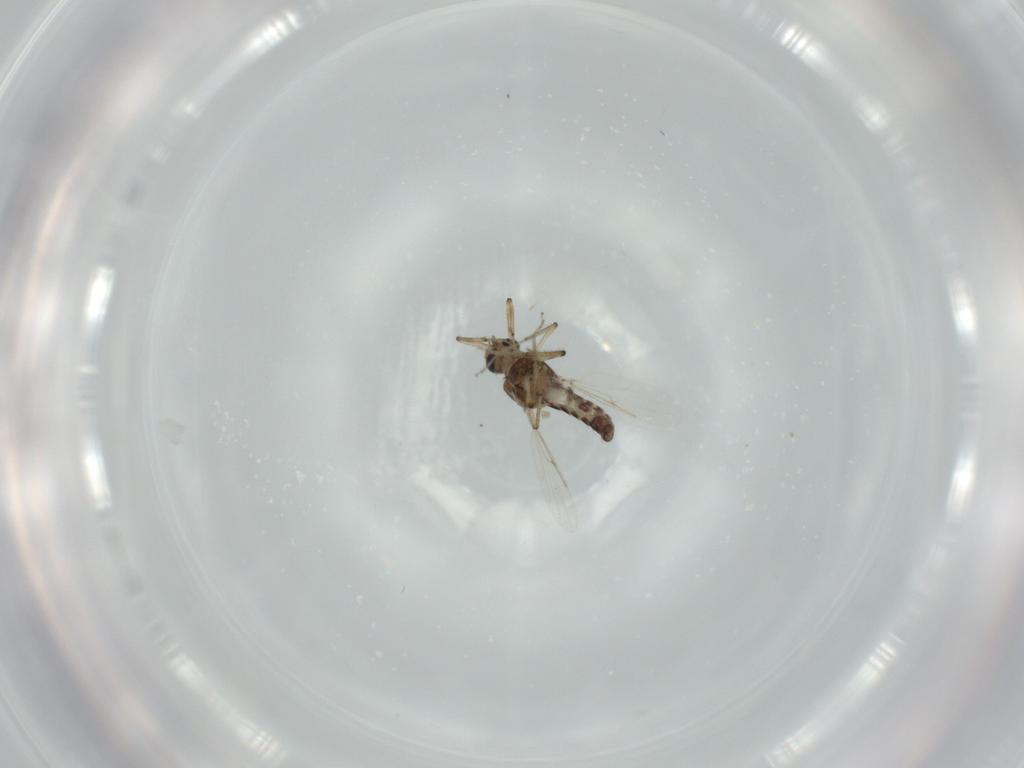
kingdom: Animalia
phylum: Arthropoda
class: Insecta
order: Diptera
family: Ceratopogonidae
